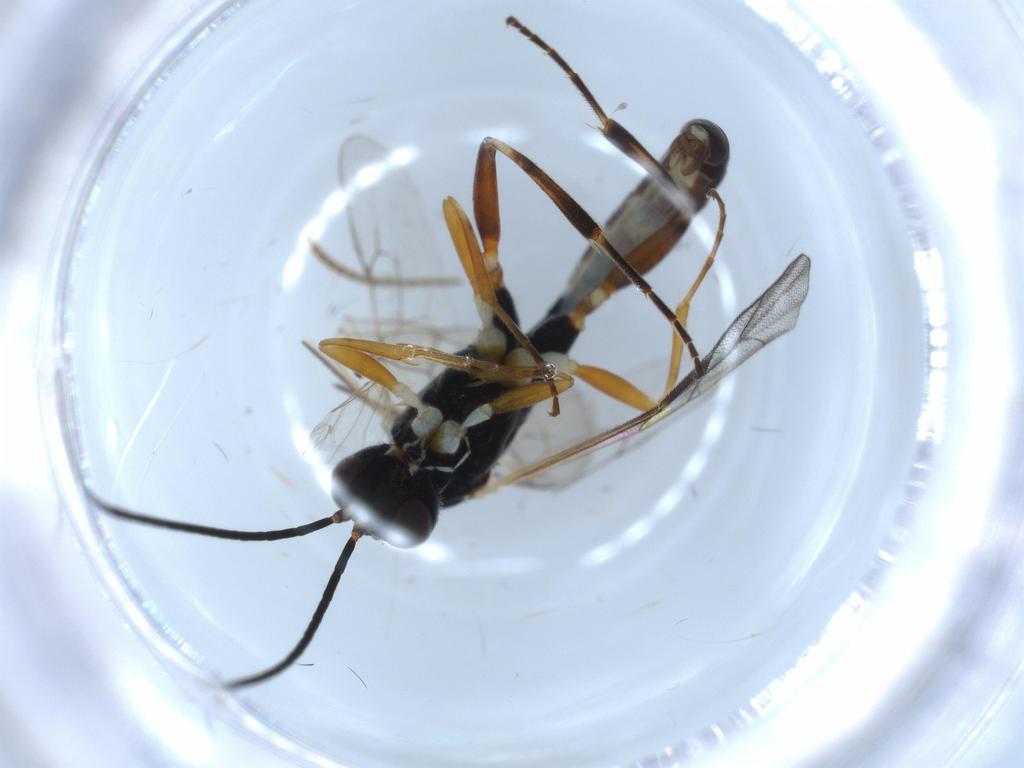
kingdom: Animalia
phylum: Arthropoda
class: Insecta
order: Hymenoptera
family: Ichneumonidae
